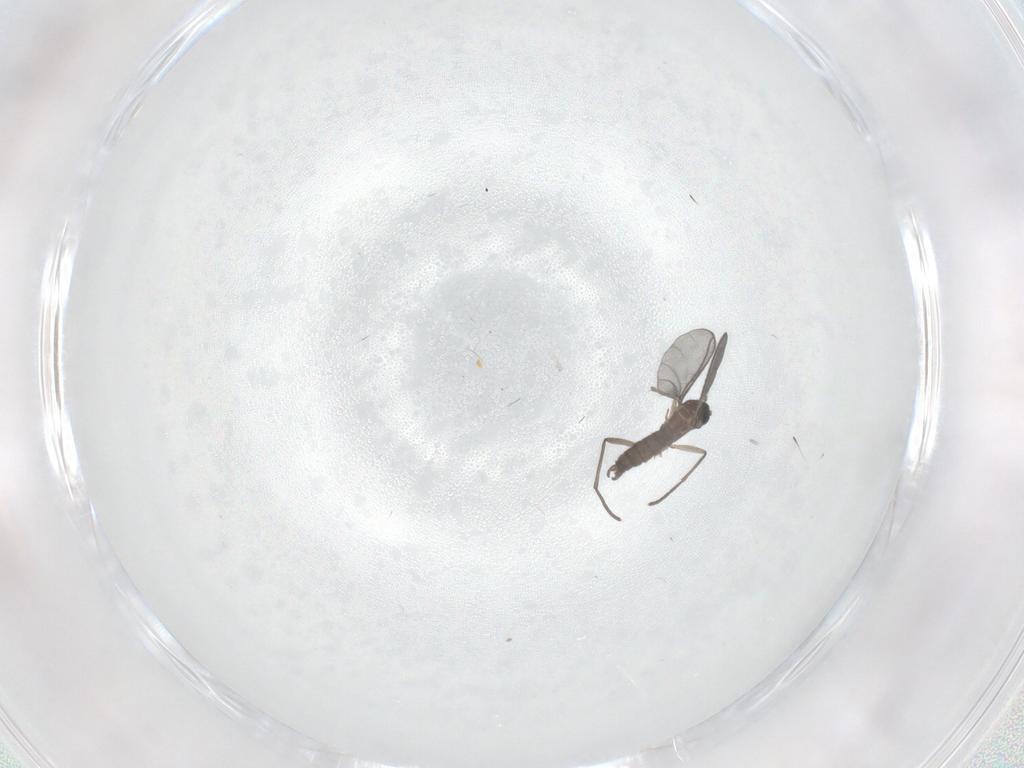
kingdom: Animalia
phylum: Arthropoda
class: Insecta
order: Diptera
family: Sciaridae
